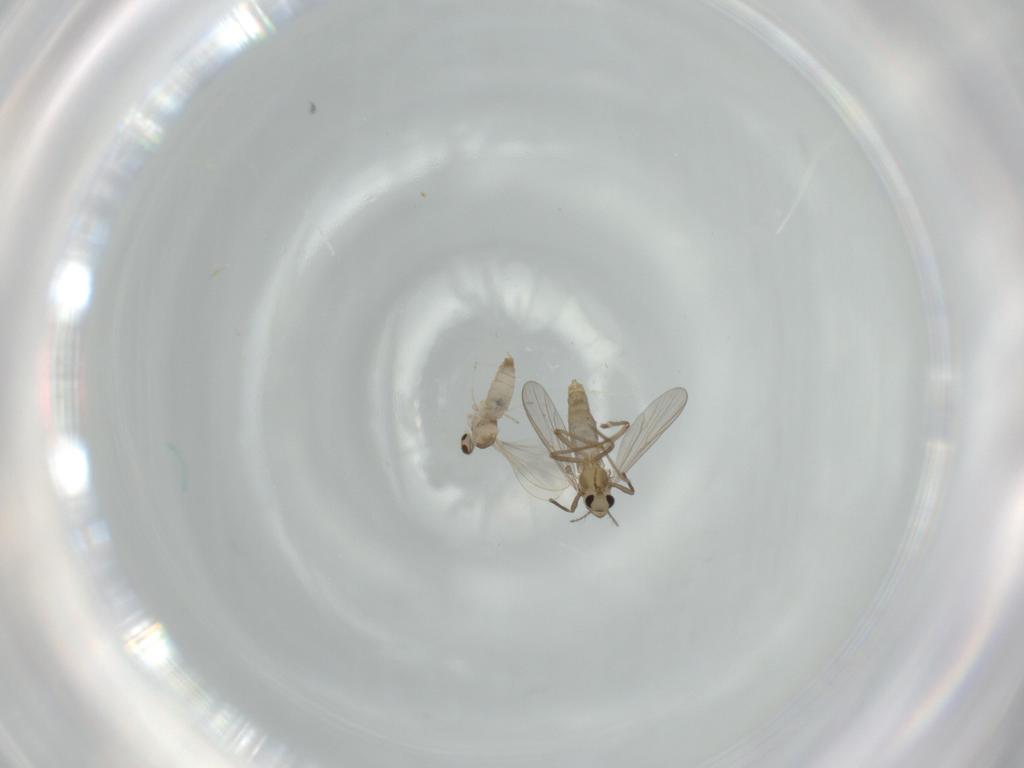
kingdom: Animalia
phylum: Arthropoda
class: Insecta
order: Diptera
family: Cecidomyiidae
